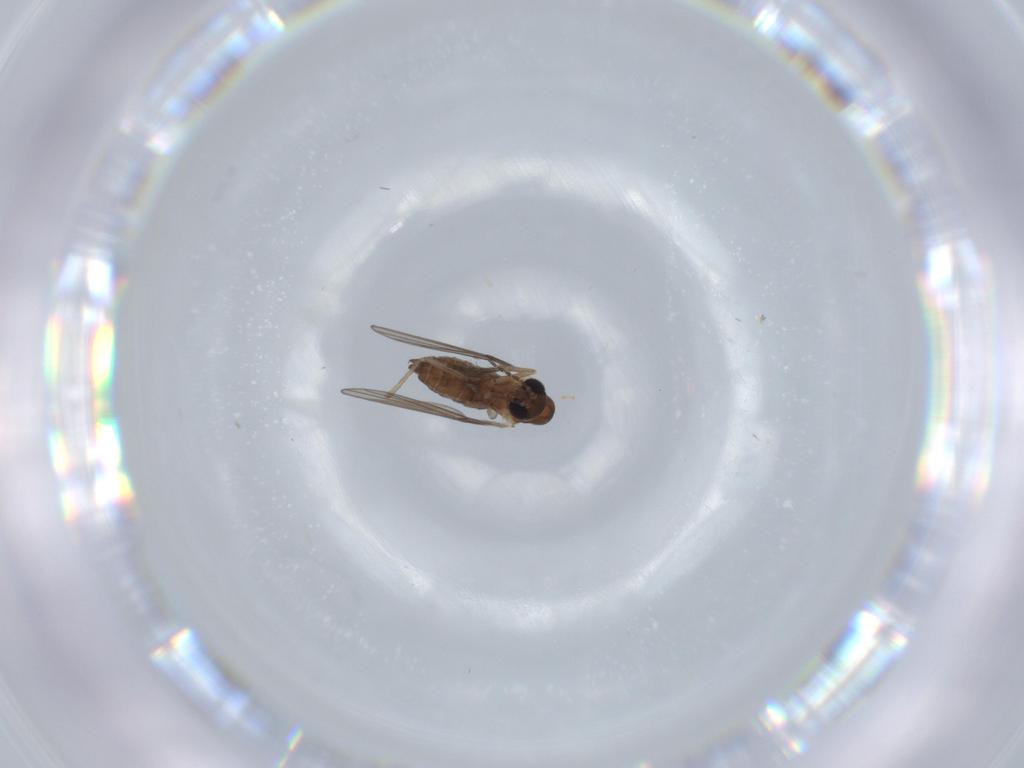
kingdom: Animalia
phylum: Arthropoda
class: Insecta
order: Diptera
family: Psychodidae
